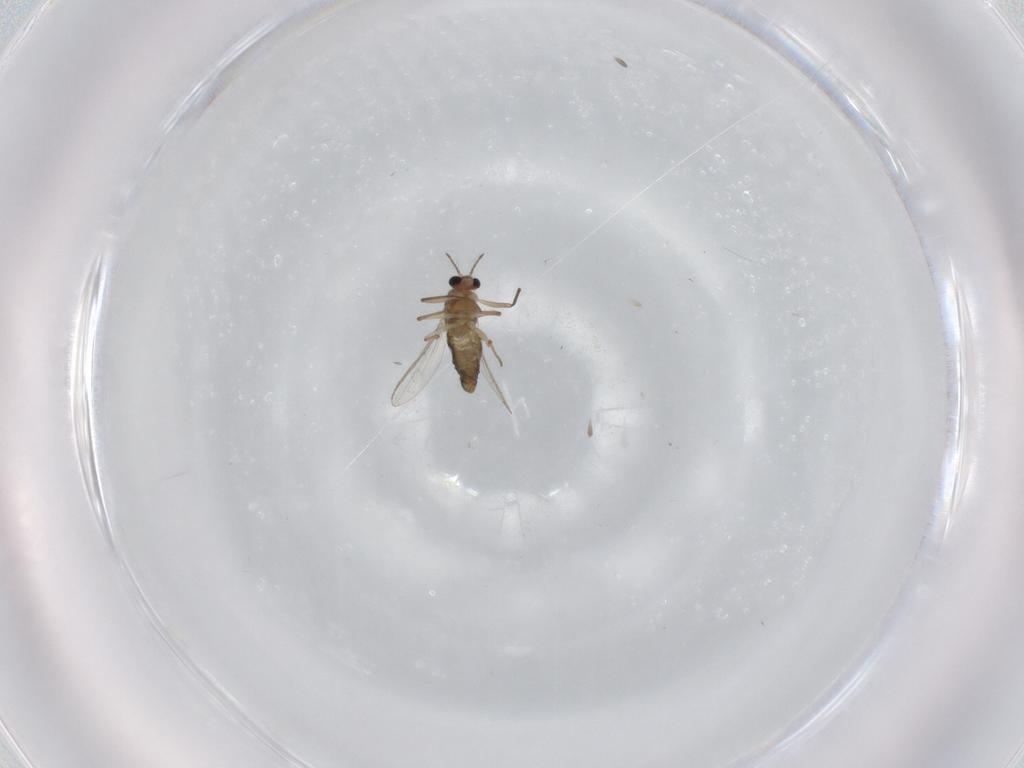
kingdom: Animalia
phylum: Arthropoda
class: Insecta
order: Diptera
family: Chironomidae
